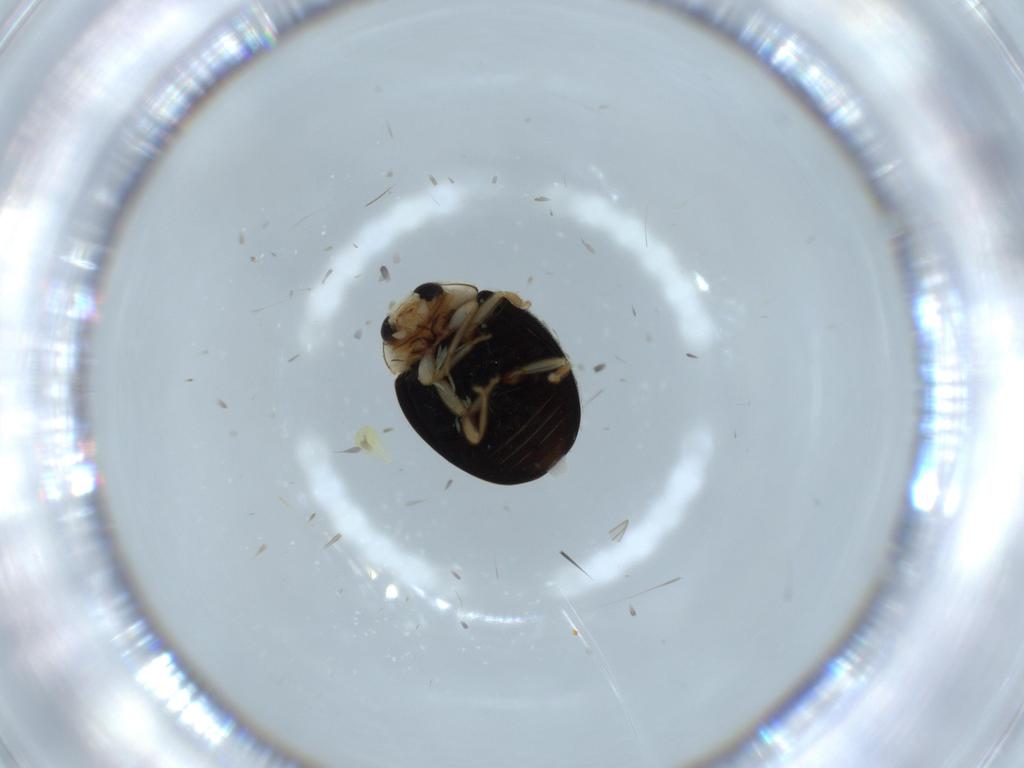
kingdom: Animalia
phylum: Arthropoda
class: Insecta
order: Coleoptera
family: Coccinellidae
